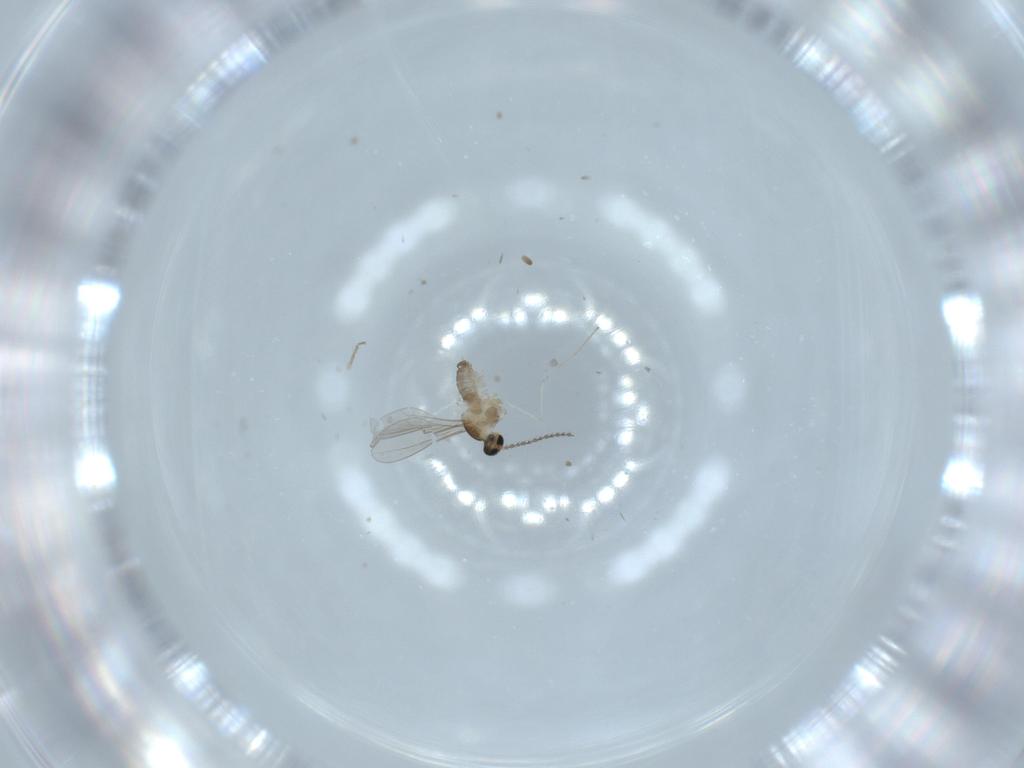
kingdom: Animalia
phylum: Arthropoda
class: Insecta
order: Diptera
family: Cecidomyiidae
